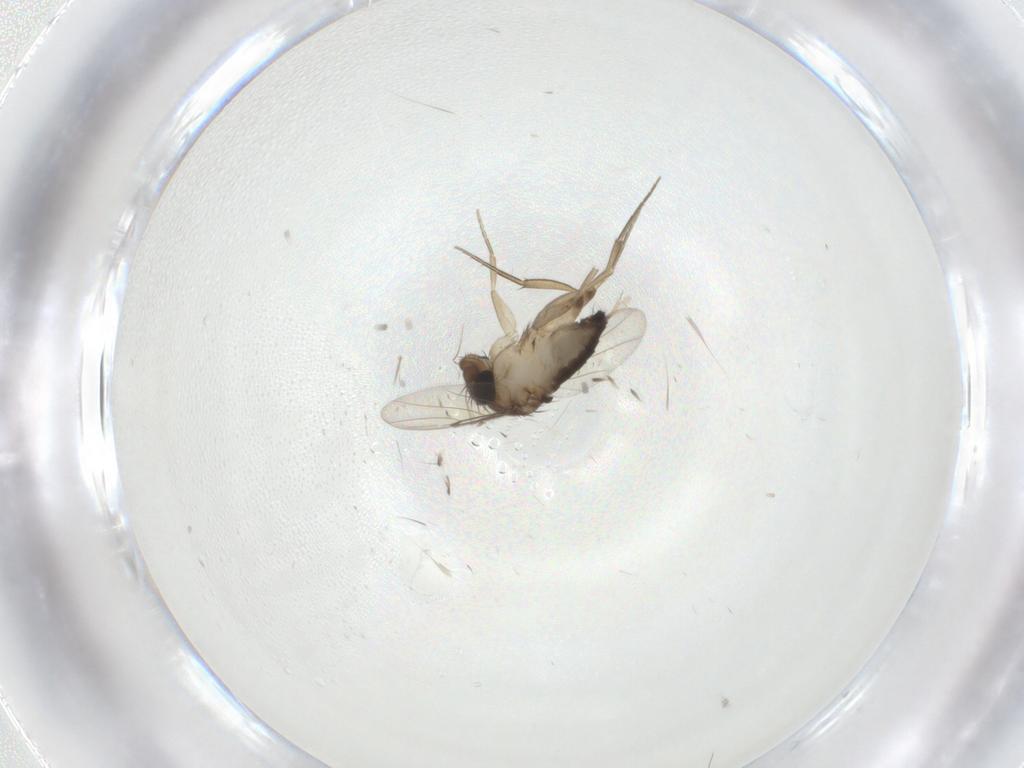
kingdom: Animalia
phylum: Arthropoda
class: Insecta
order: Diptera
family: Phoridae
